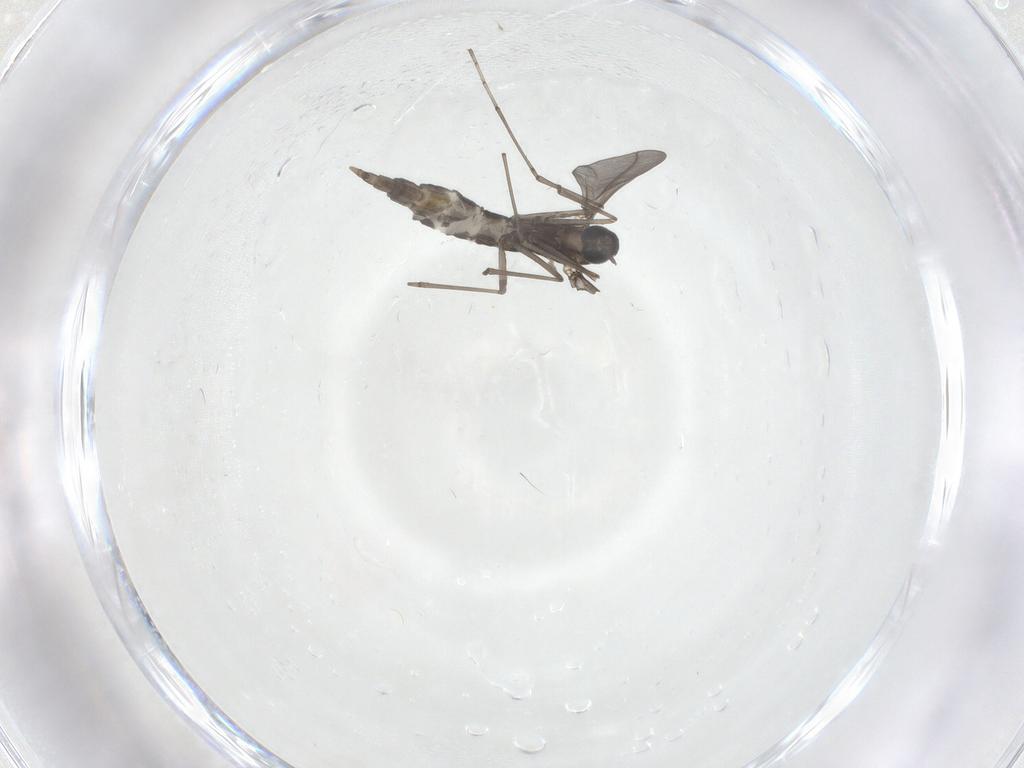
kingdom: Animalia
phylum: Arthropoda
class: Insecta
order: Diptera
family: Cecidomyiidae
